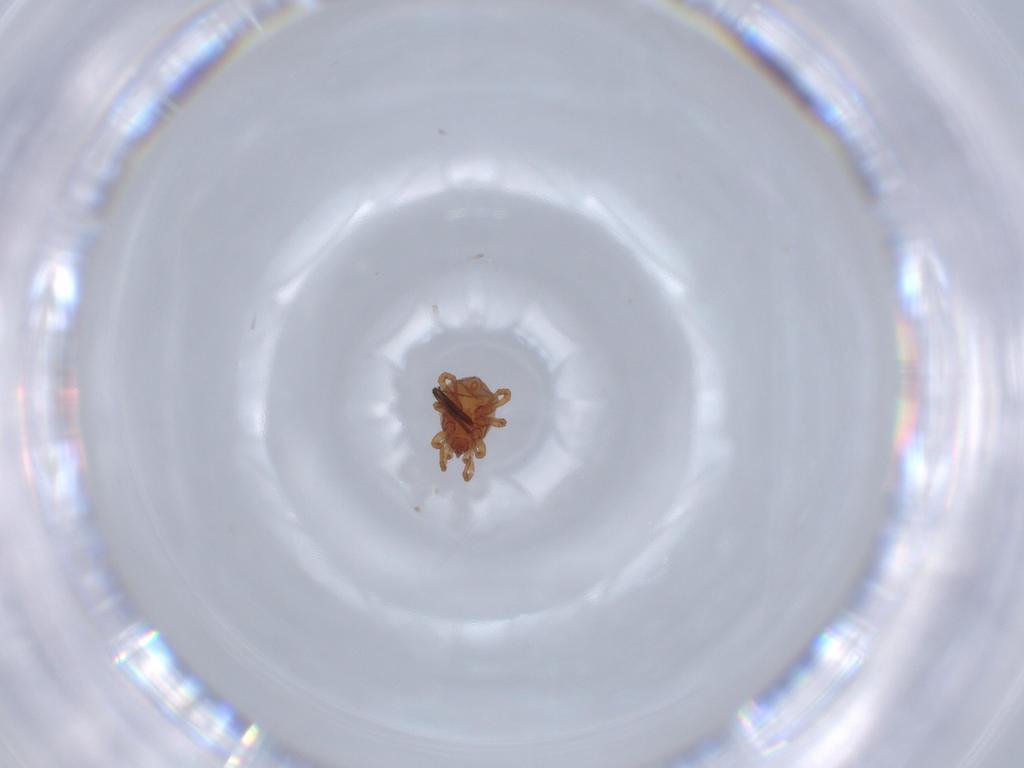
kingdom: Animalia
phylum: Arthropoda
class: Arachnida
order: Mesostigmata
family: Parasitidae
